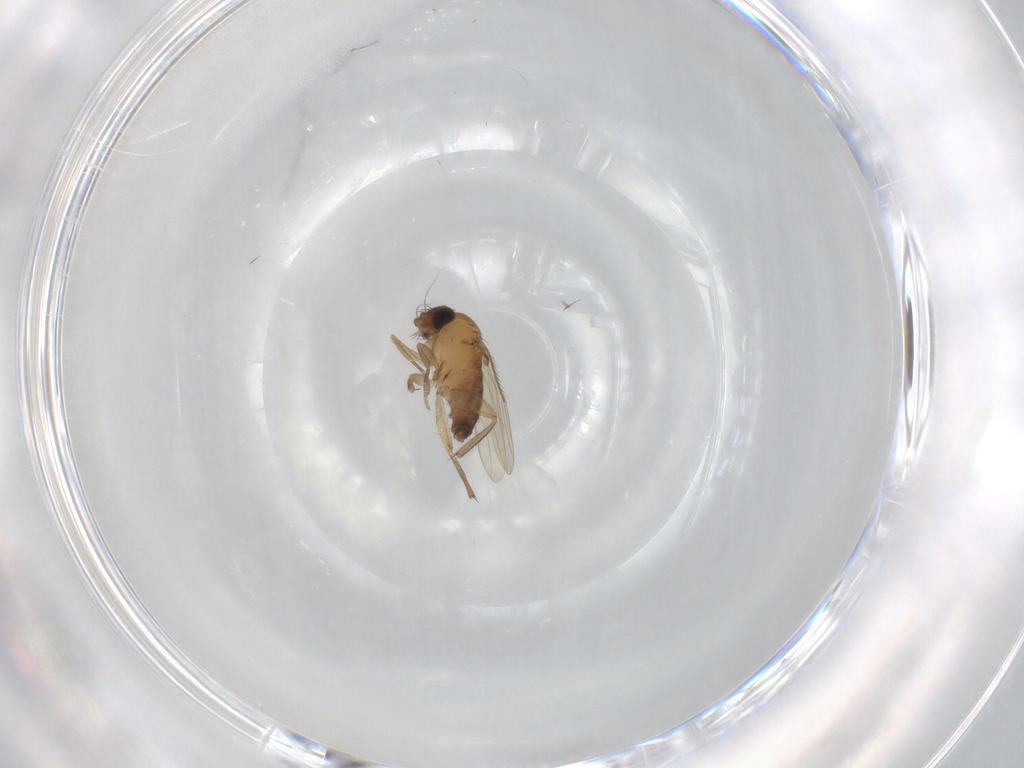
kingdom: Animalia
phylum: Arthropoda
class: Insecta
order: Diptera
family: Phoridae
